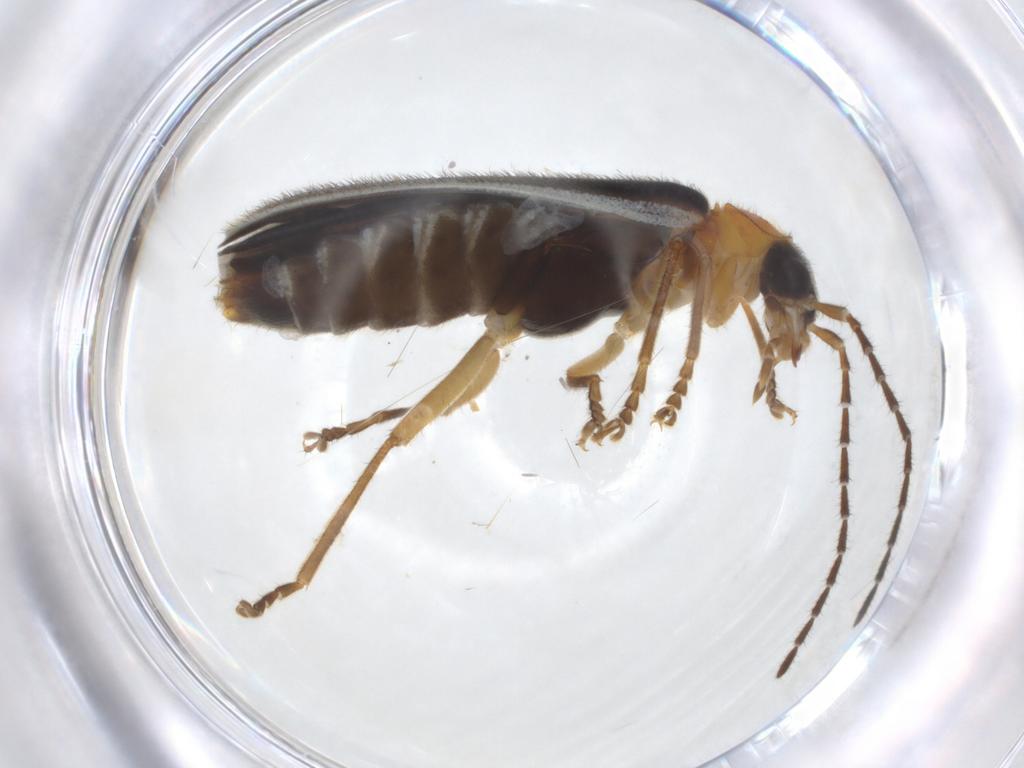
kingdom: Animalia
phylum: Arthropoda
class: Insecta
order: Coleoptera
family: Cantharidae
